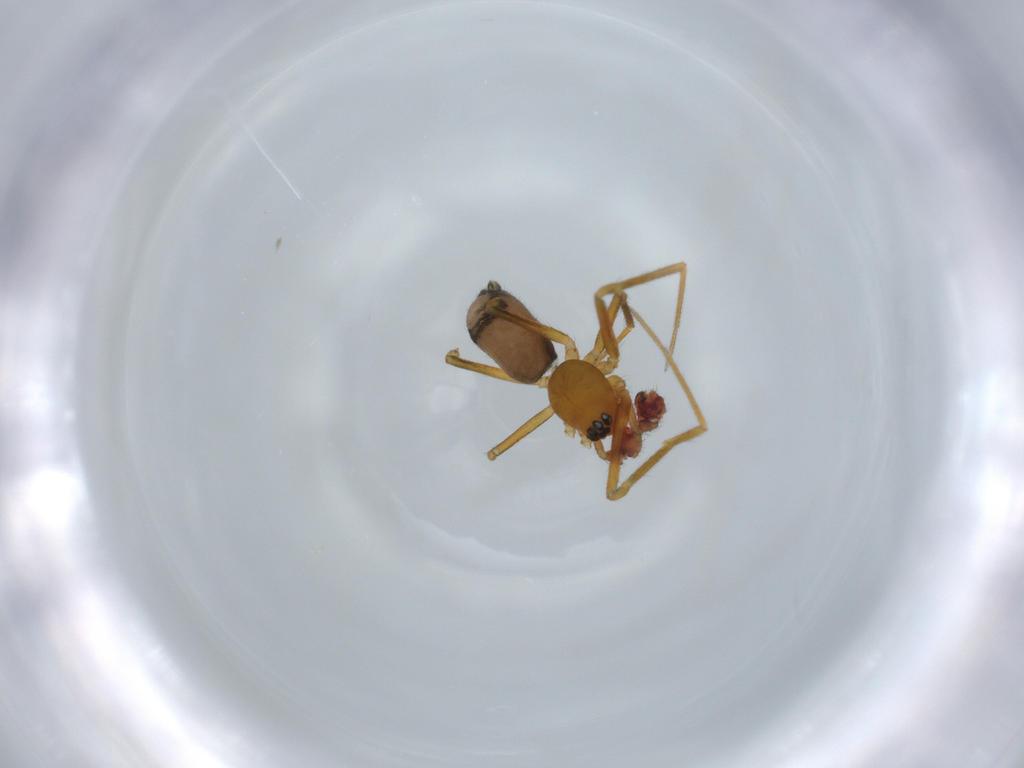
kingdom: Animalia
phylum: Arthropoda
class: Arachnida
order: Araneae
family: Linyphiidae
